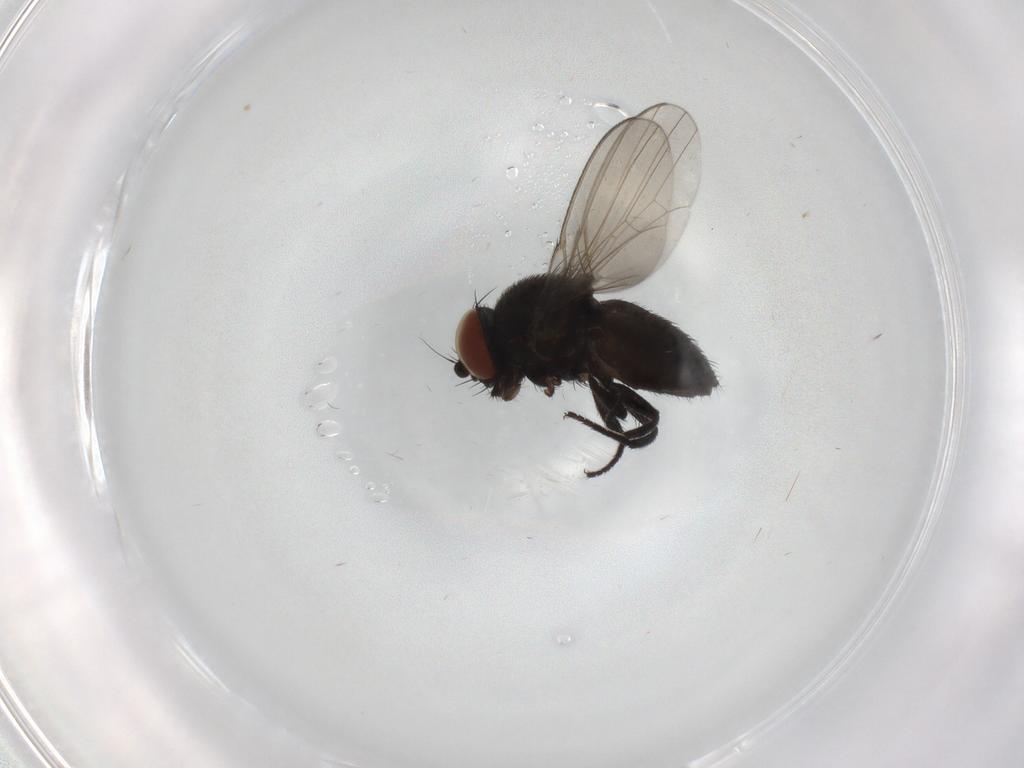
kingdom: Animalia
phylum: Arthropoda
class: Insecta
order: Diptera
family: Milichiidae
